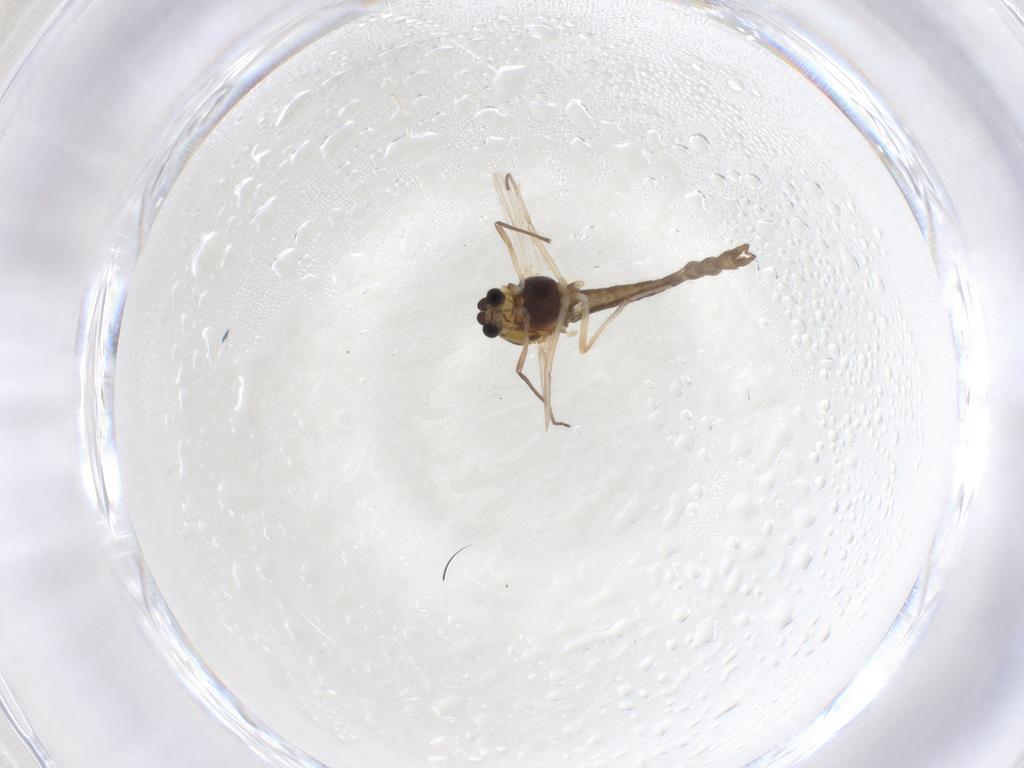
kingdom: Animalia
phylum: Arthropoda
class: Insecta
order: Diptera
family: Chironomidae
